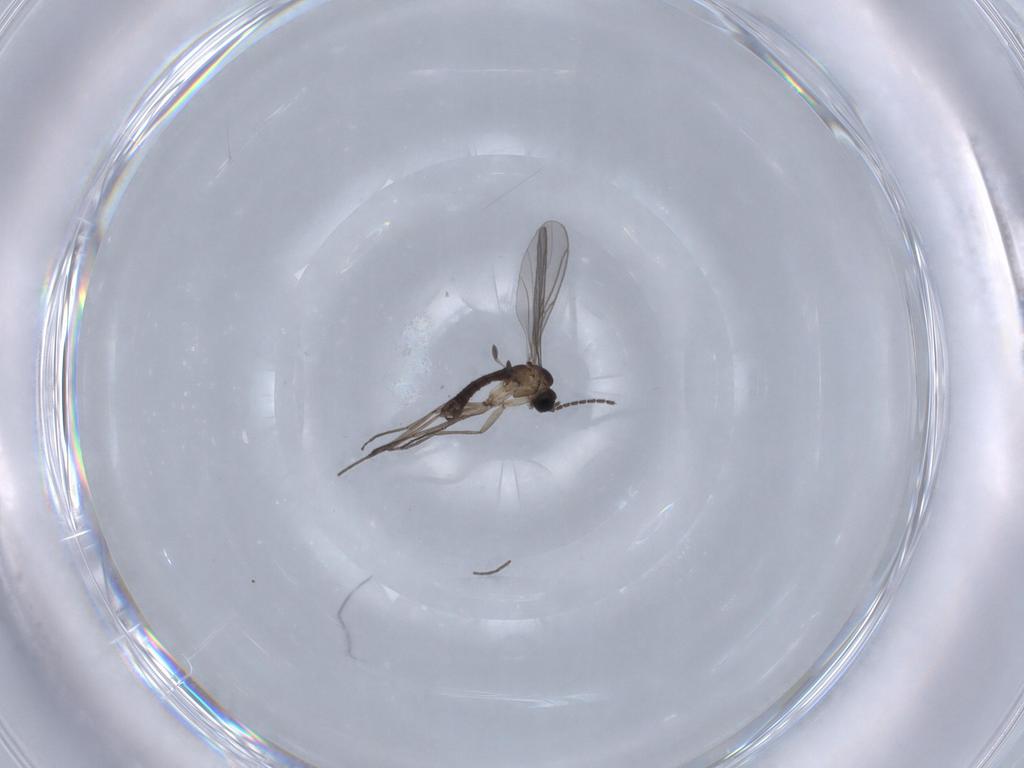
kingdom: Animalia
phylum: Arthropoda
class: Insecta
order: Diptera
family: Sciaridae
